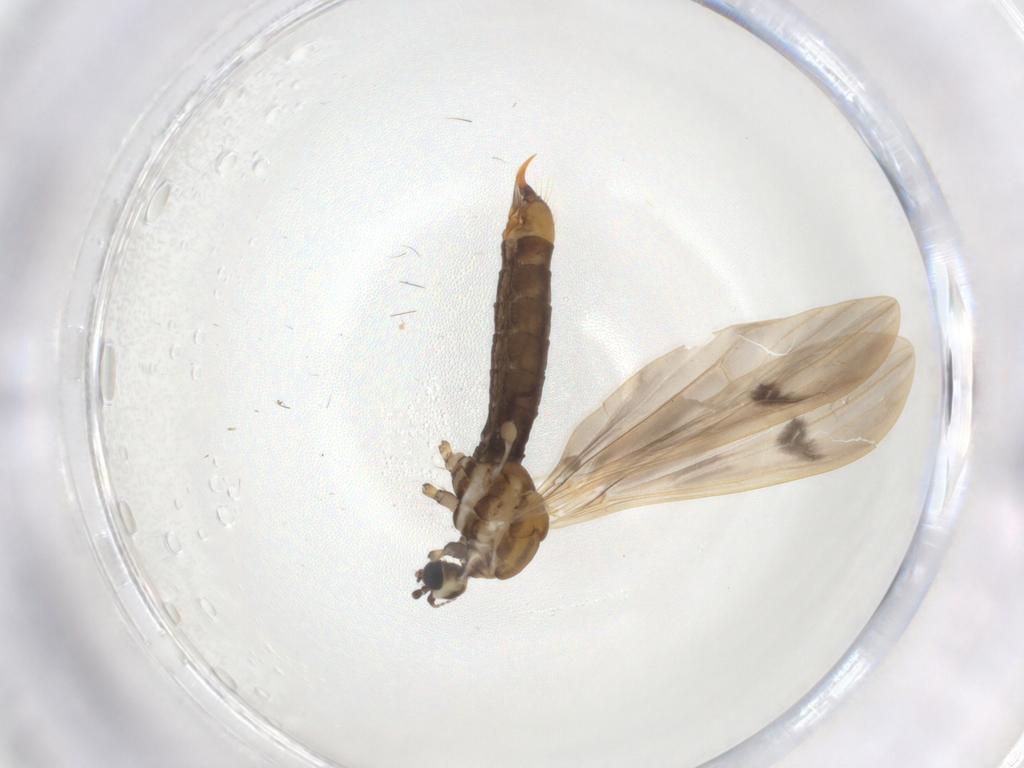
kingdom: Animalia
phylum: Arthropoda
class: Insecta
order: Diptera
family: Limoniidae
